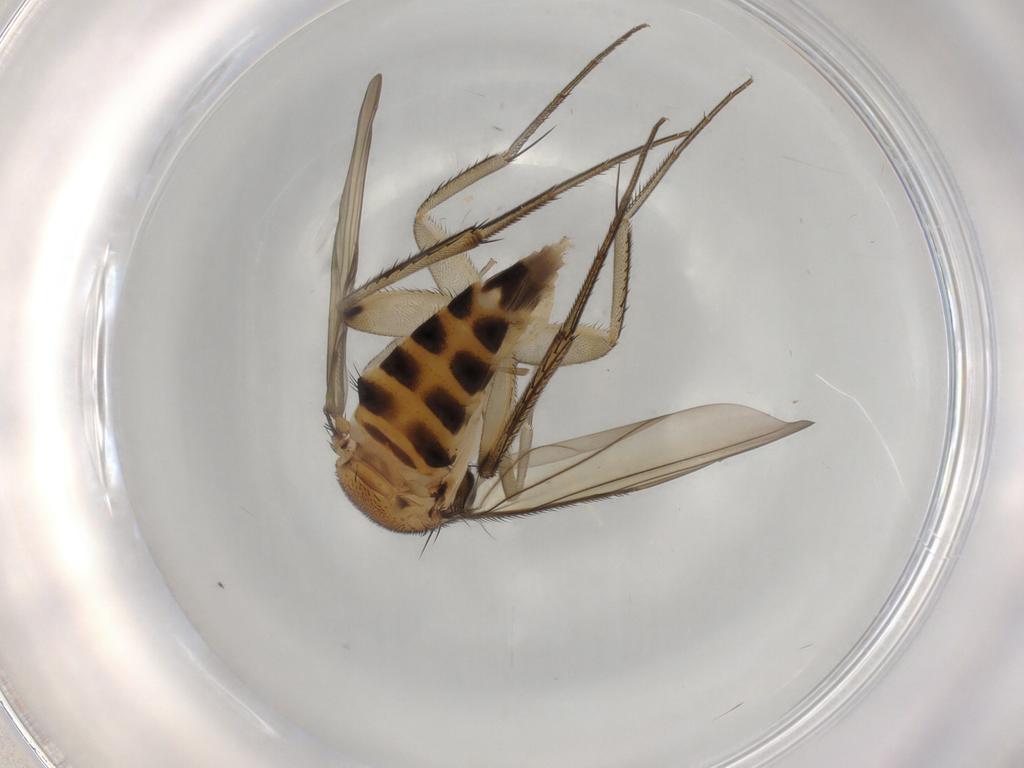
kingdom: Animalia
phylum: Arthropoda
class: Insecta
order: Diptera
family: Phoridae
